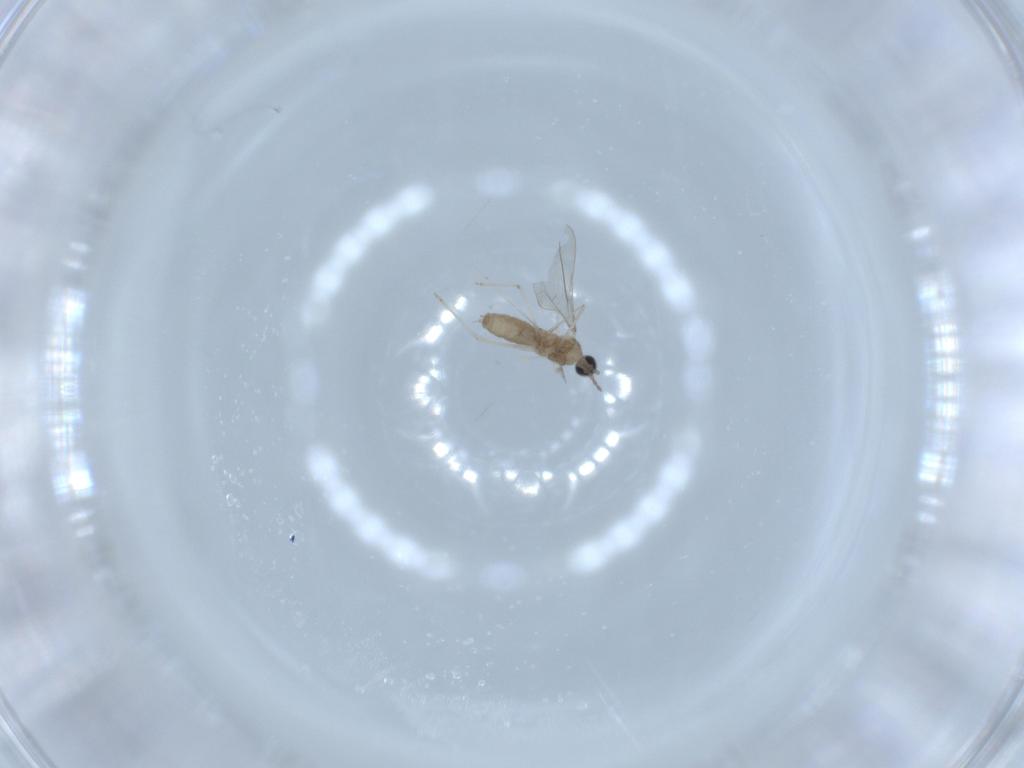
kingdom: Animalia
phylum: Arthropoda
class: Insecta
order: Diptera
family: Cecidomyiidae
